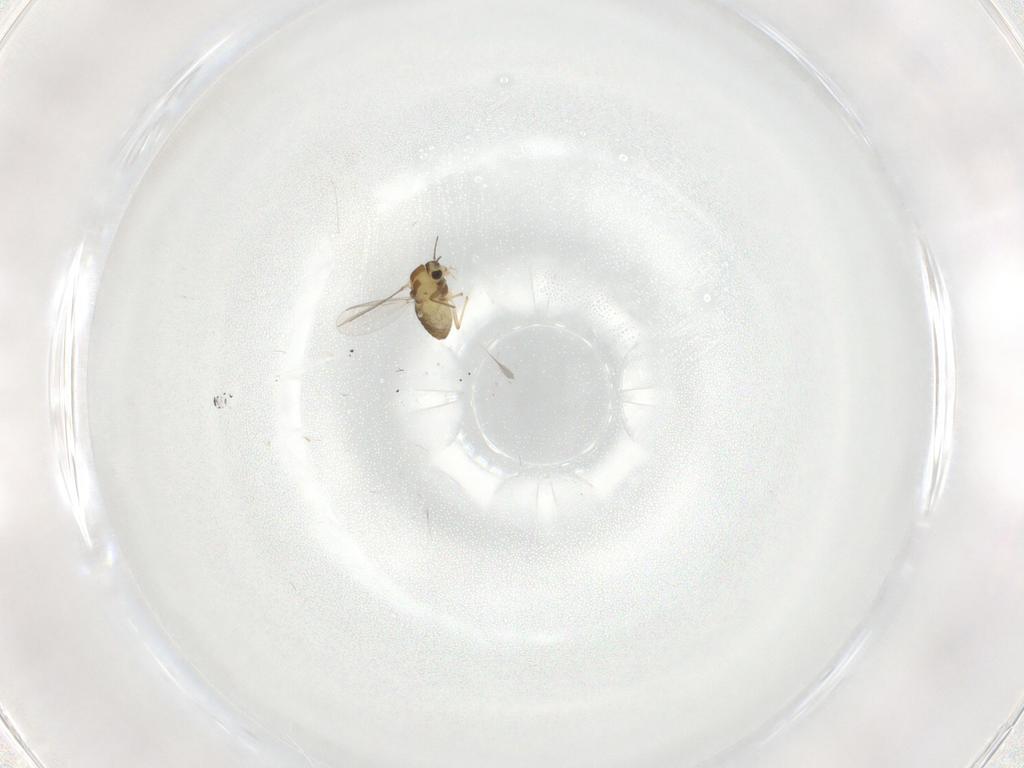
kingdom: Animalia
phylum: Arthropoda
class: Insecta
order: Diptera
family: Chironomidae
